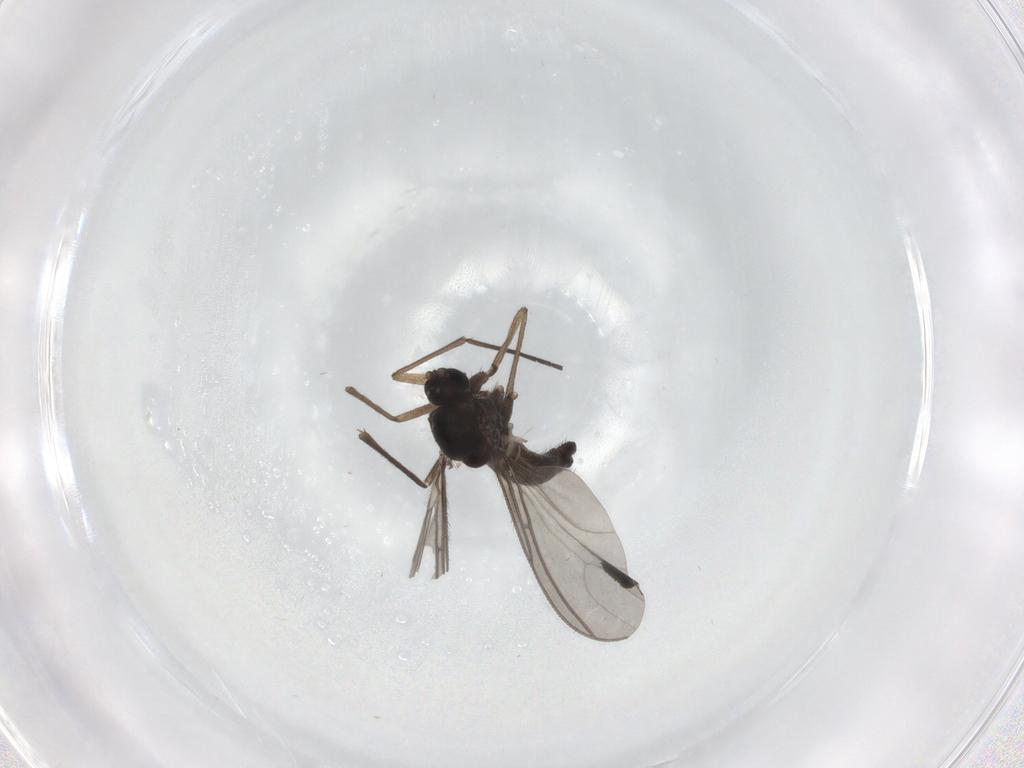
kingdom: Animalia
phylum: Arthropoda
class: Insecta
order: Diptera
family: Sciaridae
